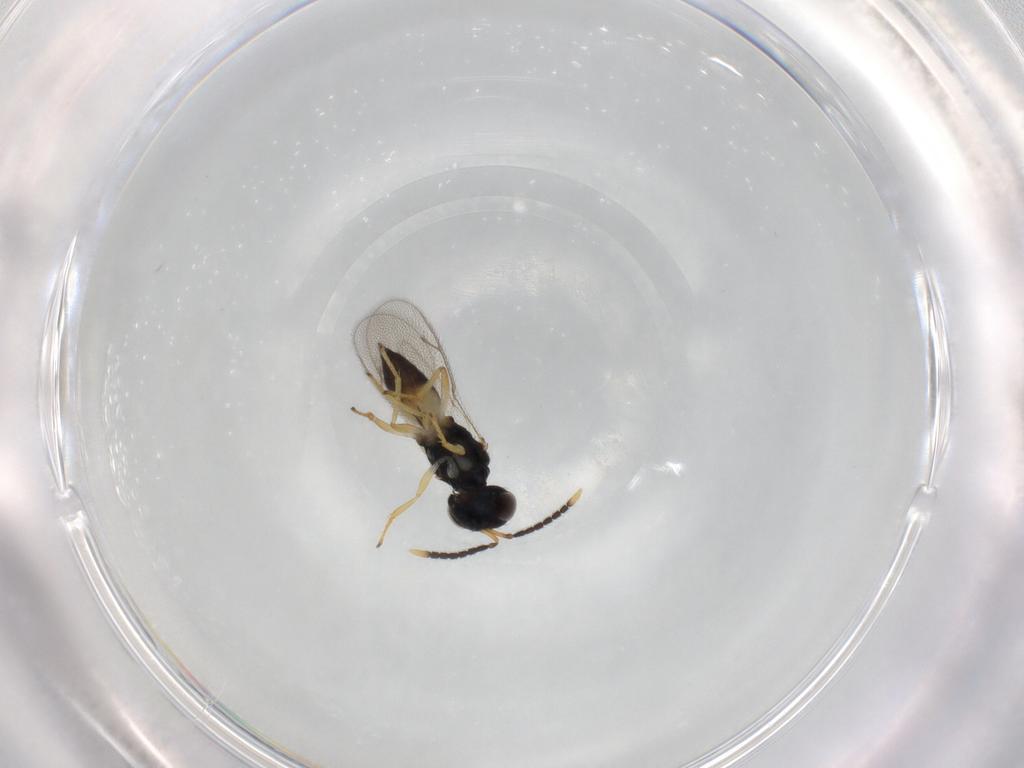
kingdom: Animalia
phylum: Arthropoda
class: Insecta
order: Hymenoptera
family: Pteromalidae
